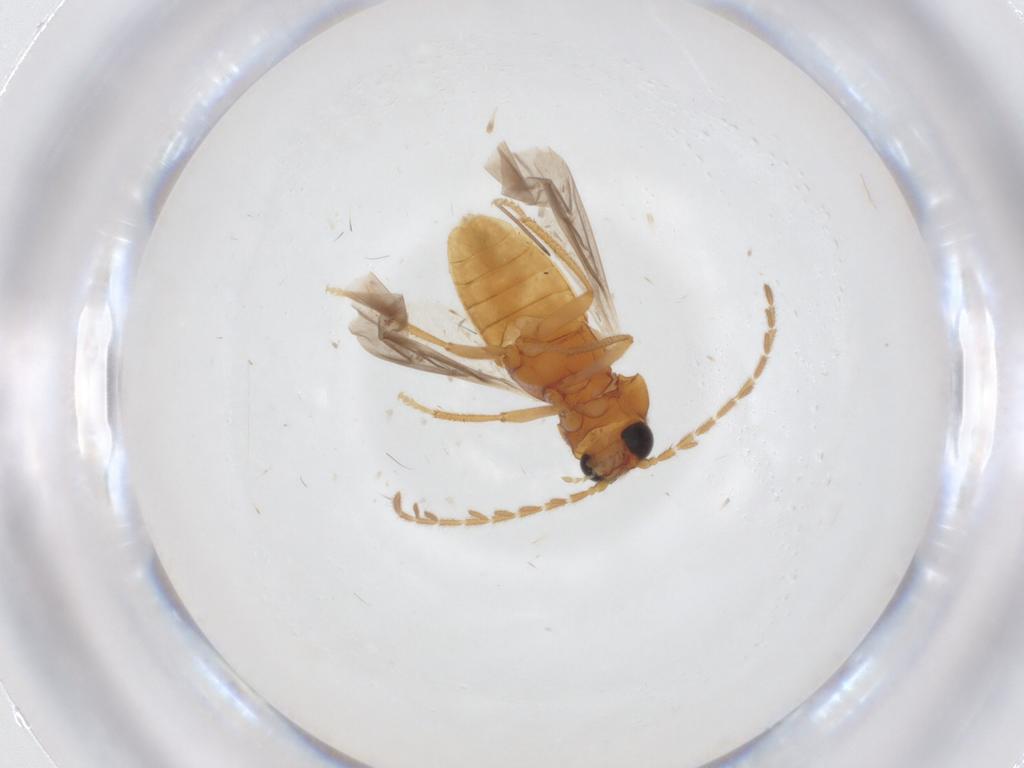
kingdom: Animalia
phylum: Arthropoda
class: Insecta
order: Coleoptera
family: Ptilodactylidae
